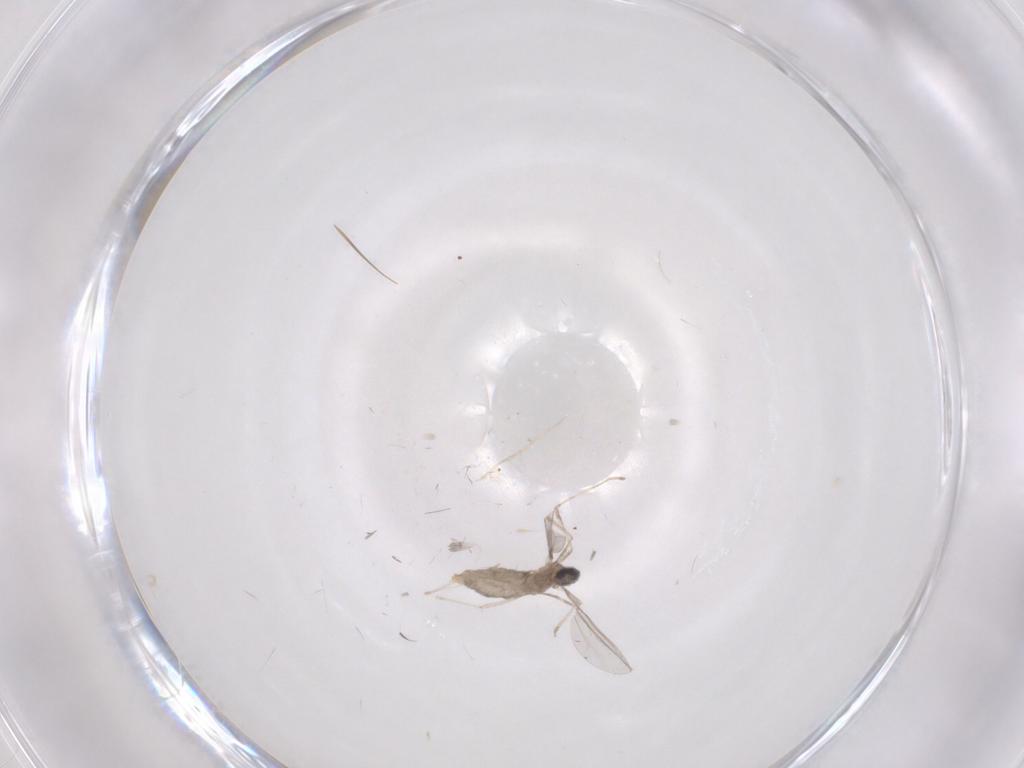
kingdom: Animalia
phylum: Arthropoda
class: Insecta
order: Diptera
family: Cecidomyiidae
